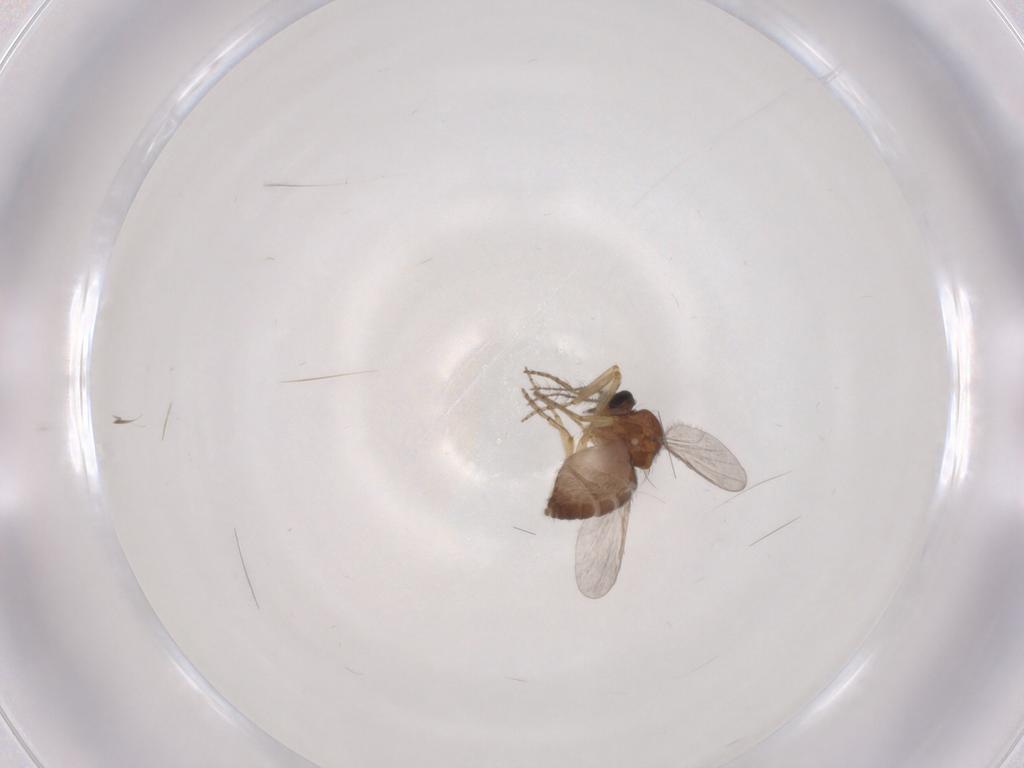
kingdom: Animalia
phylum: Arthropoda
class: Insecta
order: Diptera
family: Ceratopogonidae
